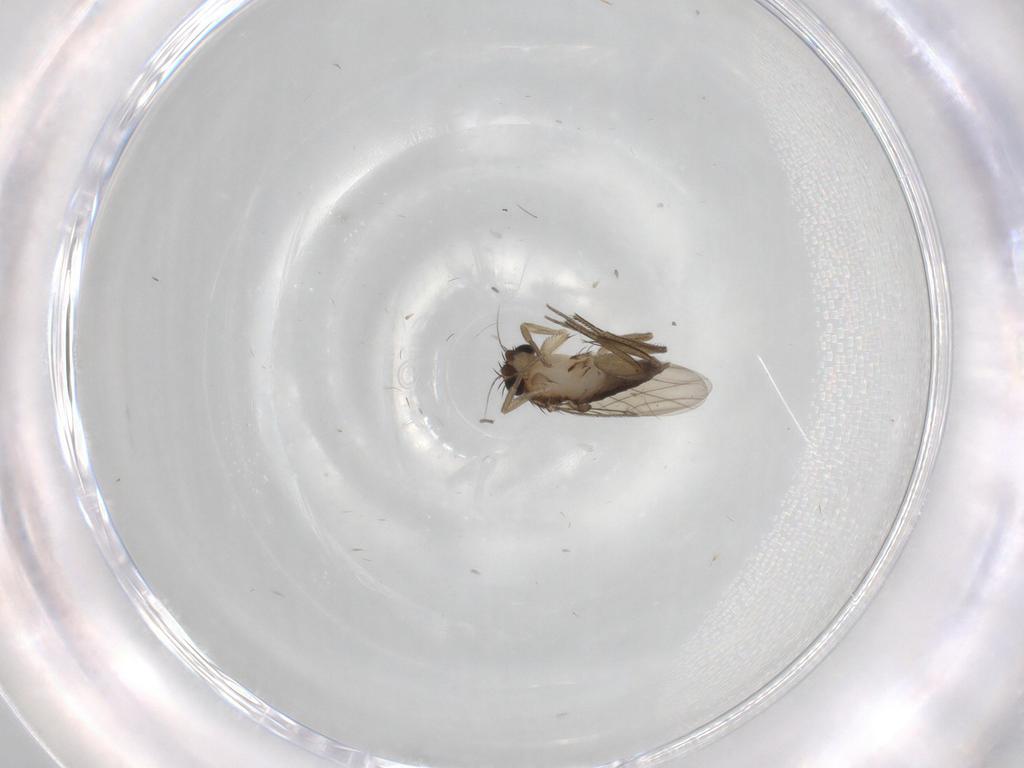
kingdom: Animalia
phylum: Arthropoda
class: Insecta
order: Diptera
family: Phoridae
